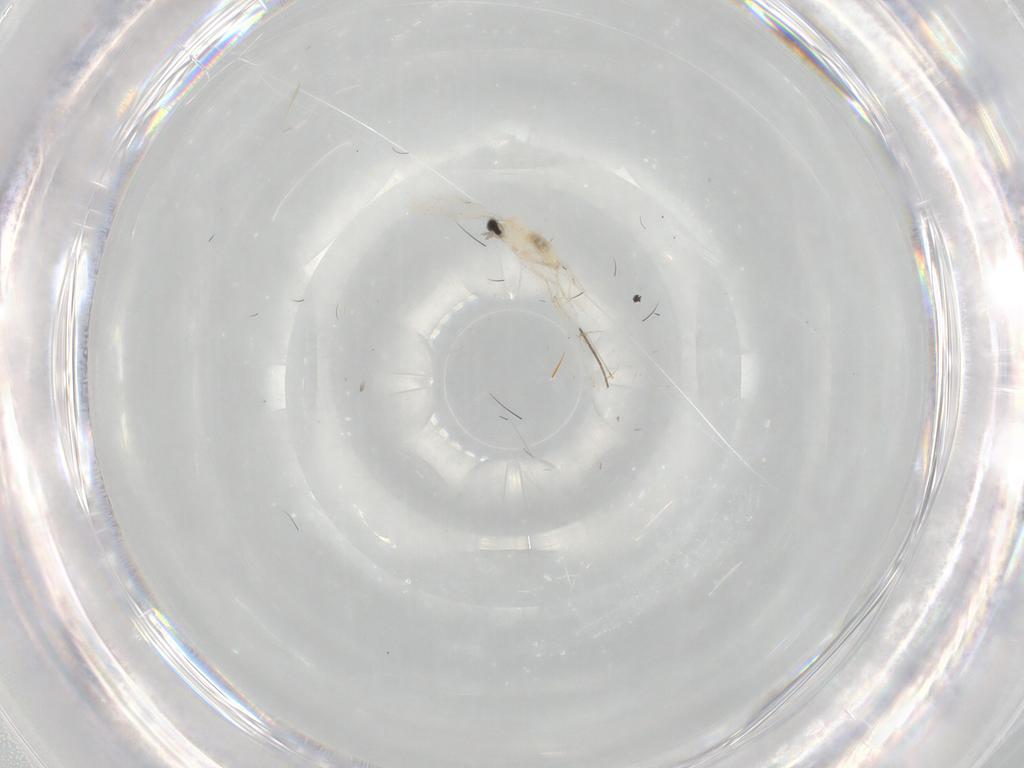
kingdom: Animalia
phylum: Arthropoda
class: Insecta
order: Diptera
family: Cecidomyiidae
